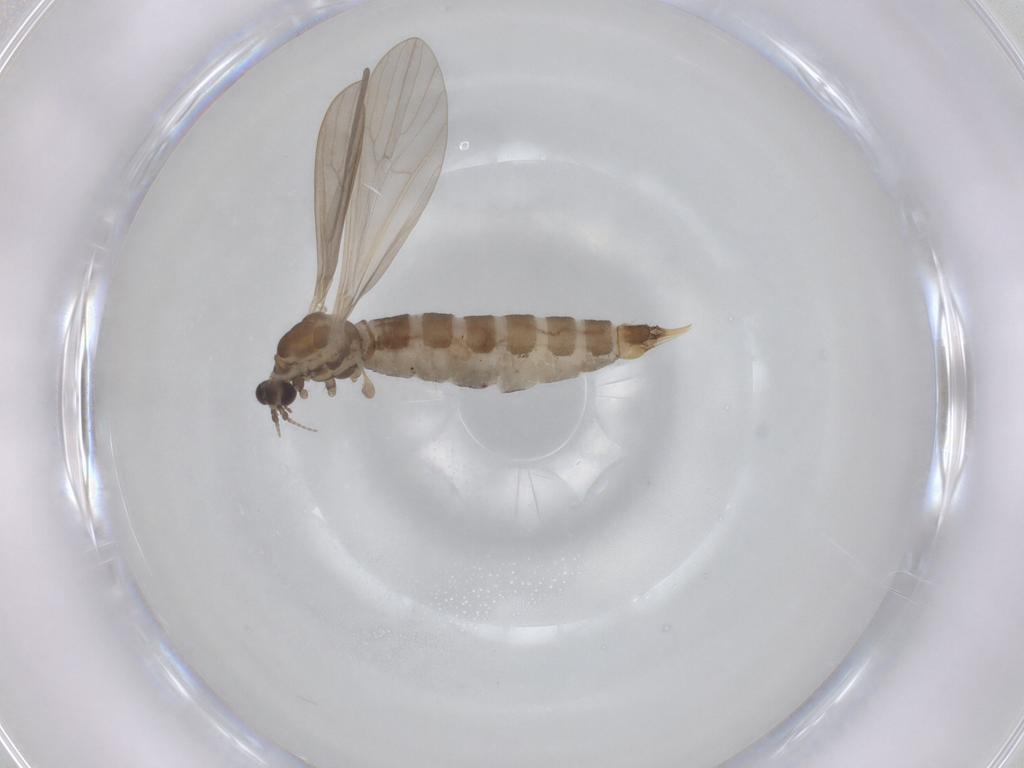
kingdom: Animalia
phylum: Arthropoda
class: Insecta
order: Diptera
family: Limoniidae
